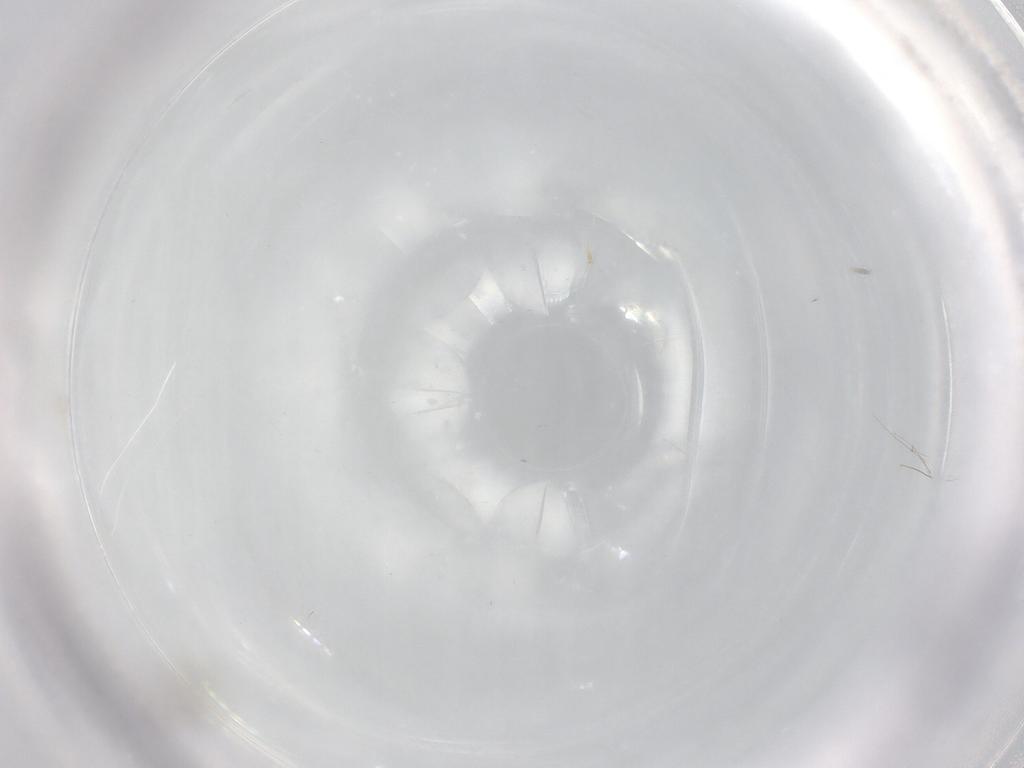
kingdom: Animalia
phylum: Arthropoda
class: Insecta
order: Diptera
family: Cecidomyiidae
